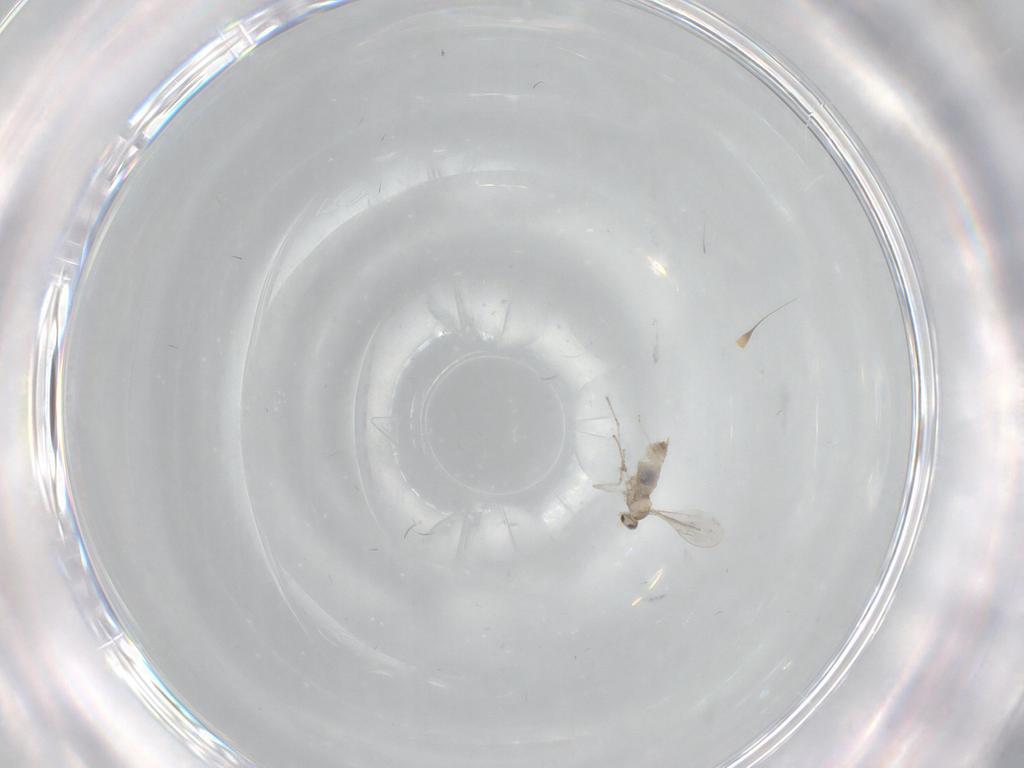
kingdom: Animalia
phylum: Arthropoda
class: Insecta
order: Diptera
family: Cecidomyiidae
